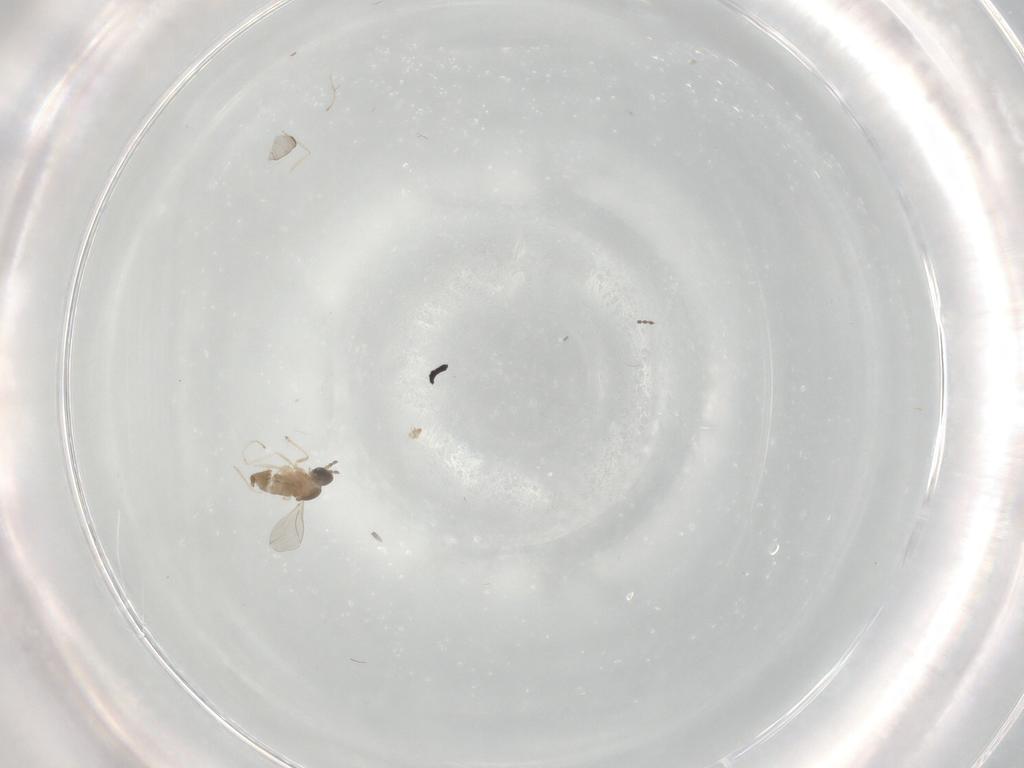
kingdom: Animalia
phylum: Arthropoda
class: Insecta
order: Diptera
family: Cecidomyiidae
